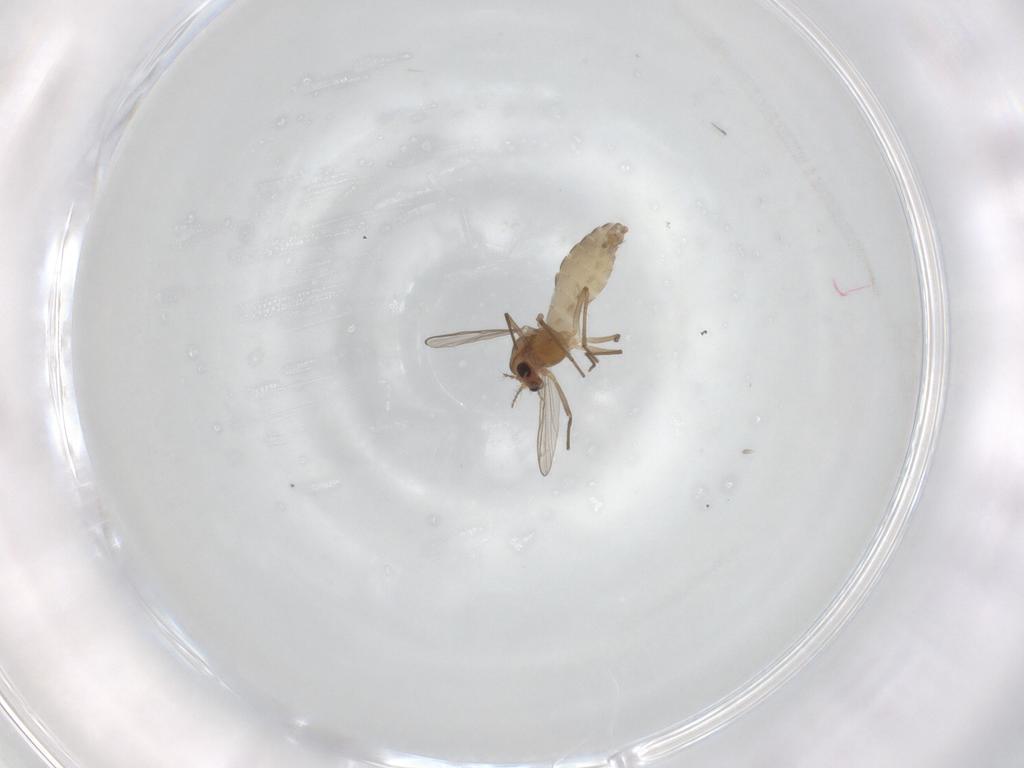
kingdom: Animalia
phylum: Arthropoda
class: Insecta
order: Diptera
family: Chironomidae
